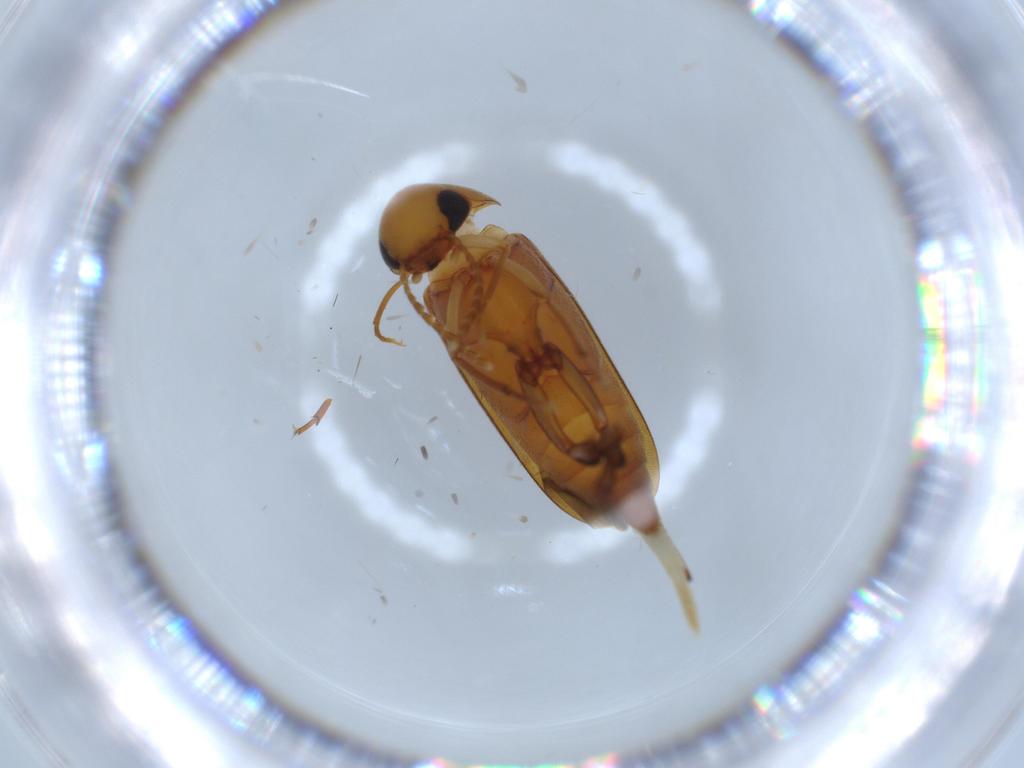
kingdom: Animalia
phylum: Arthropoda
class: Insecta
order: Coleoptera
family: Aderidae
